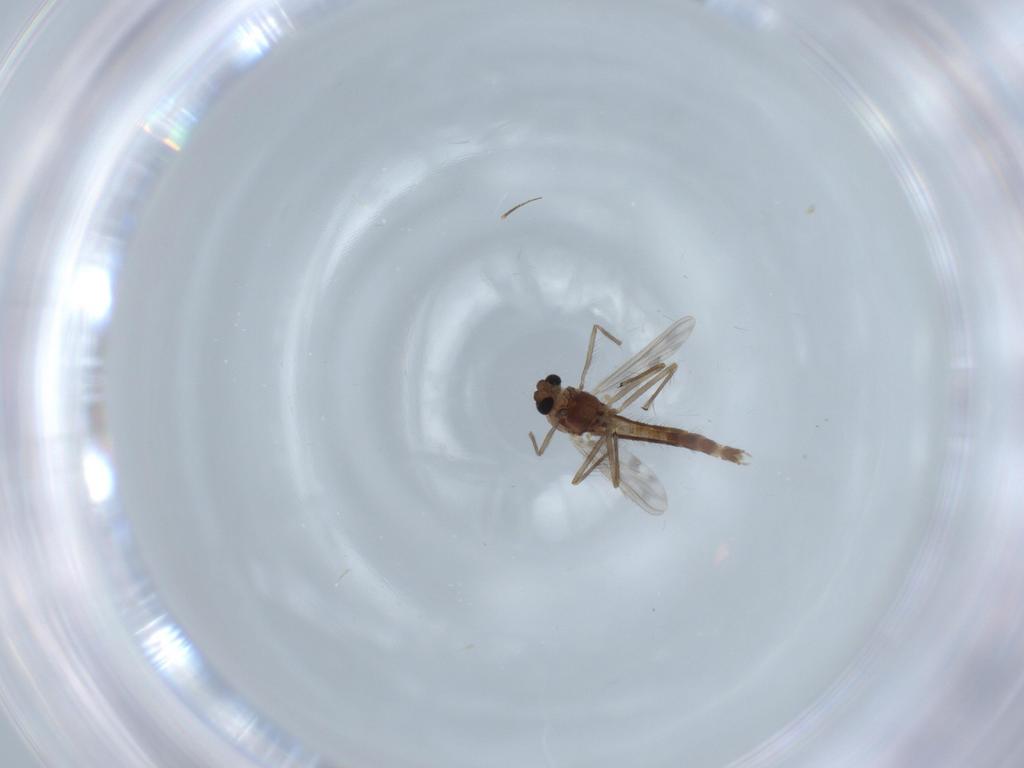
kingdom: Animalia
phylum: Arthropoda
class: Insecta
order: Diptera
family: Chironomidae
